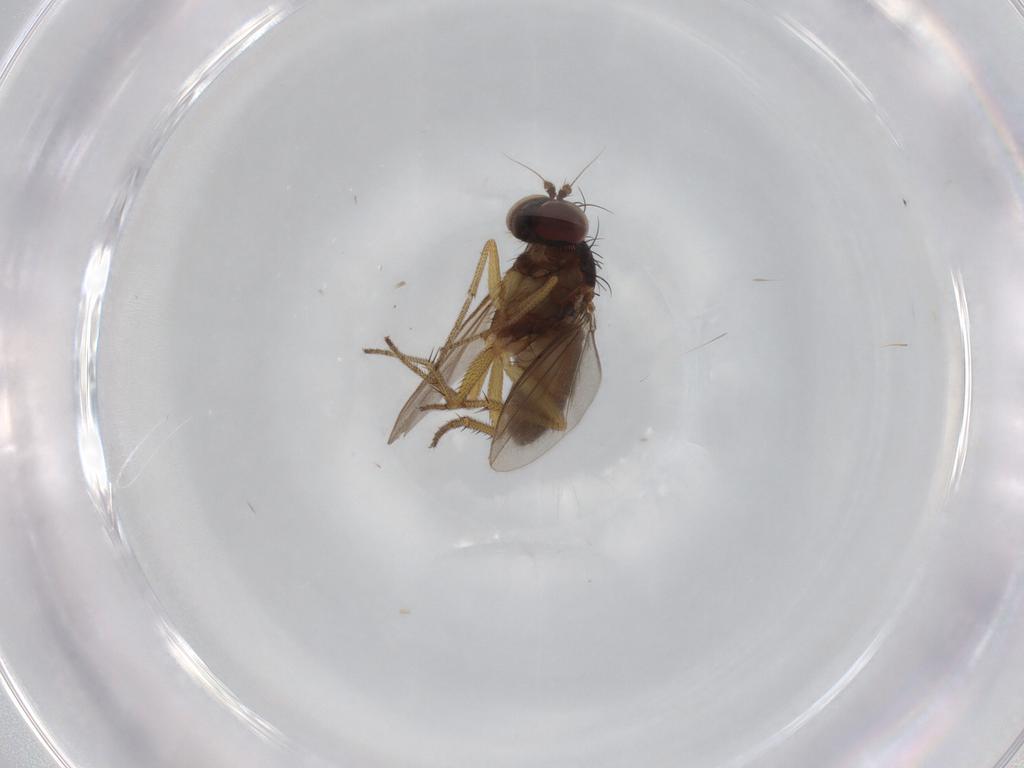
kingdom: Animalia
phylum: Arthropoda
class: Insecta
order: Diptera
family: Dolichopodidae
